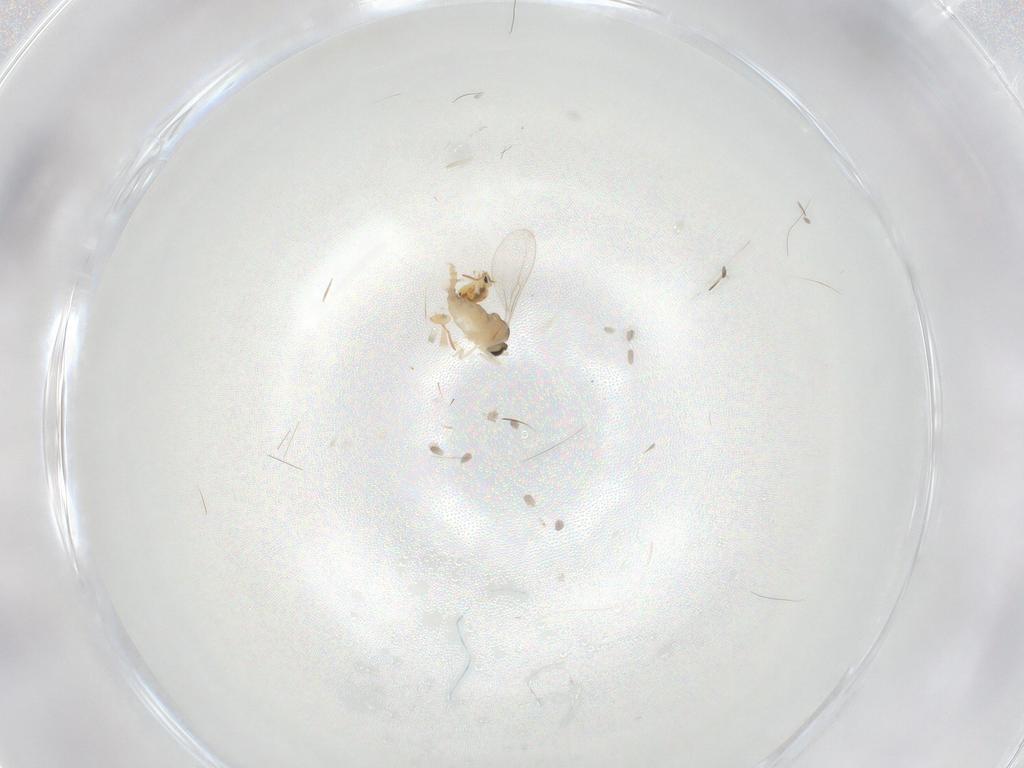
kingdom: Animalia
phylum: Arthropoda
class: Insecta
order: Diptera
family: Cecidomyiidae
